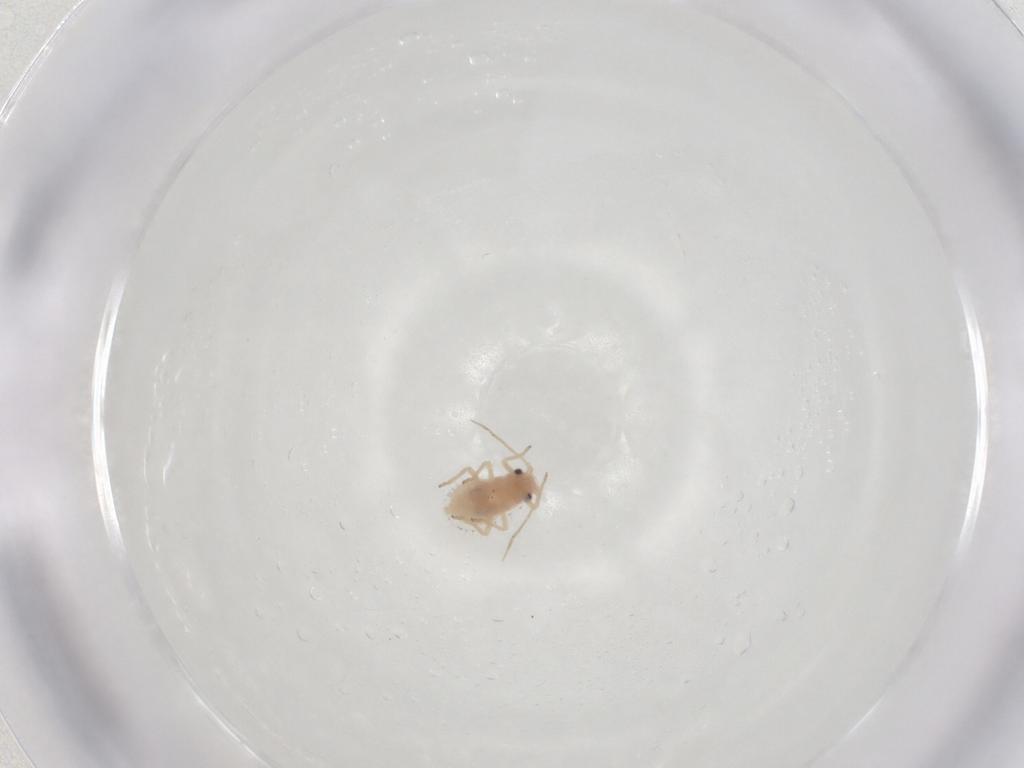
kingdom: Animalia
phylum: Arthropoda
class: Insecta
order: Hemiptera
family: Aphididae
